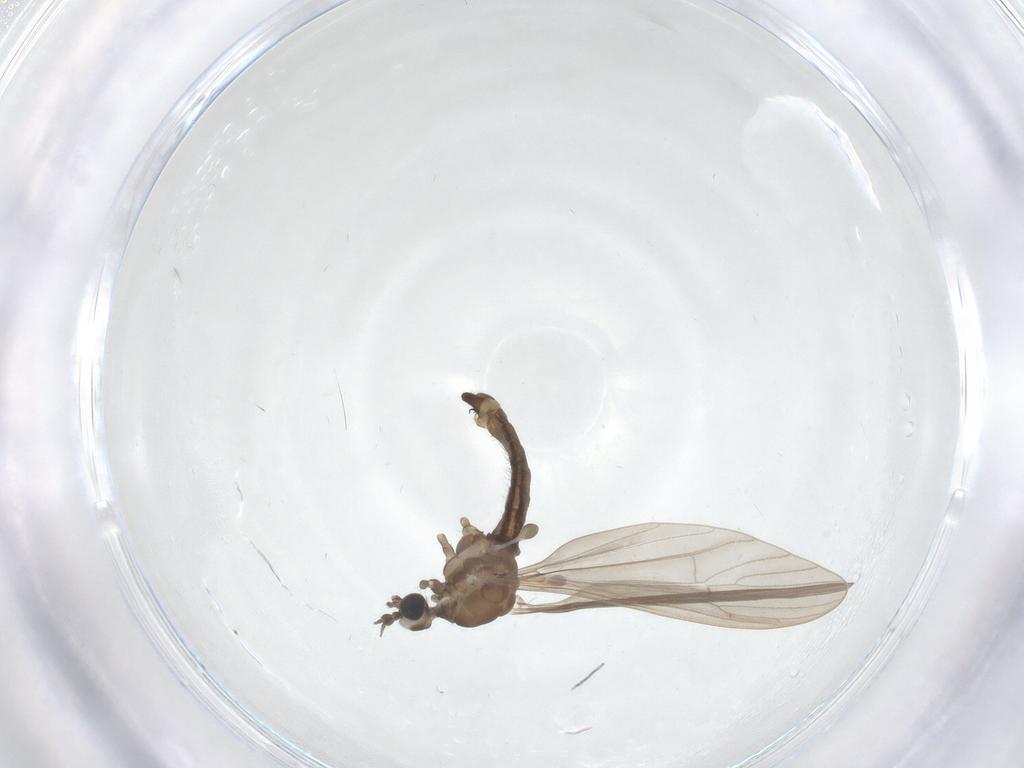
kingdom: Animalia
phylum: Arthropoda
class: Insecta
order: Diptera
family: Limoniidae
